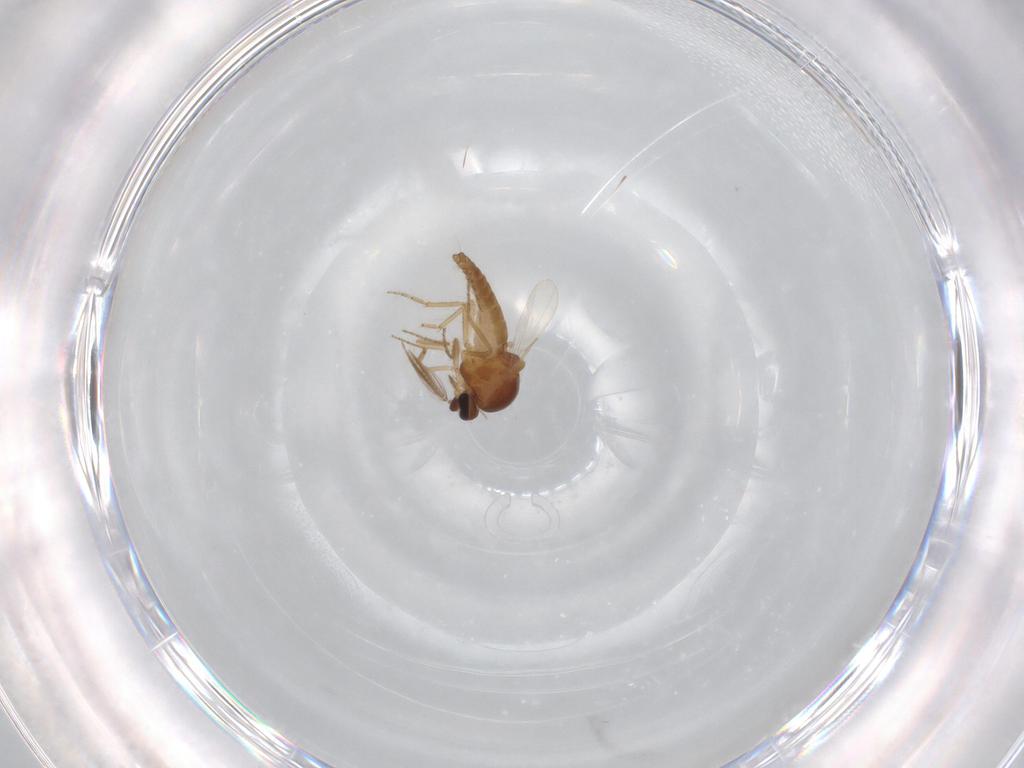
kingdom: Animalia
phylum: Arthropoda
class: Insecta
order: Diptera
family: Ceratopogonidae
